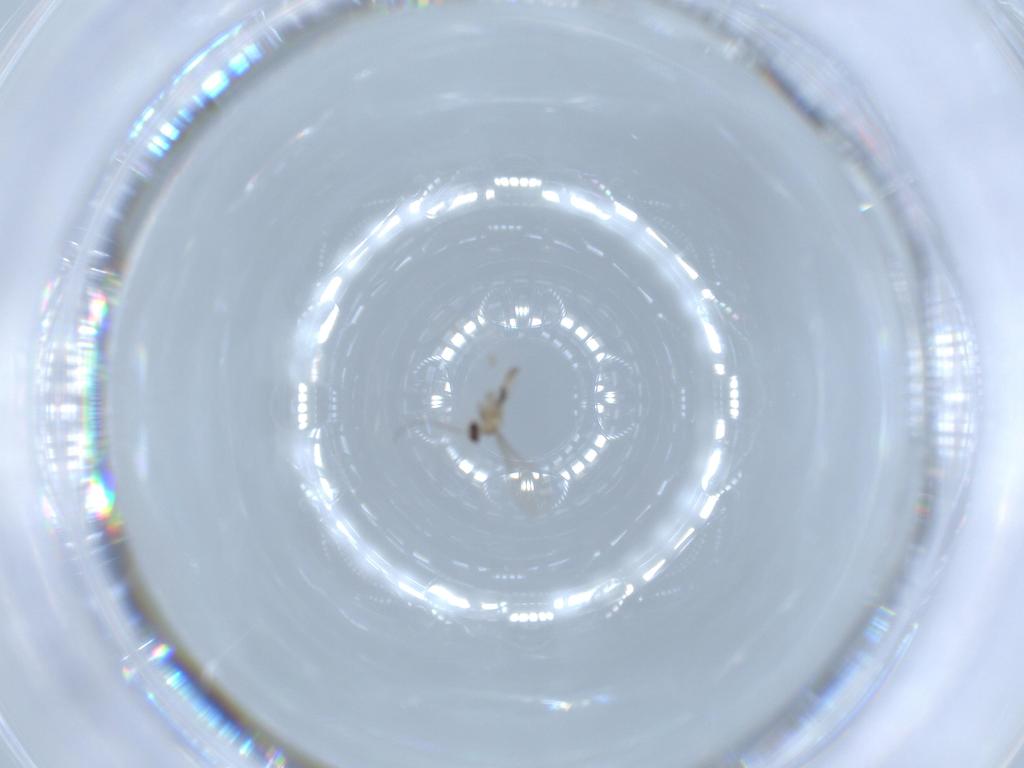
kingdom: Animalia
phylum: Arthropoda
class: Insecta
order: Diptera
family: Cecidomyiidae
